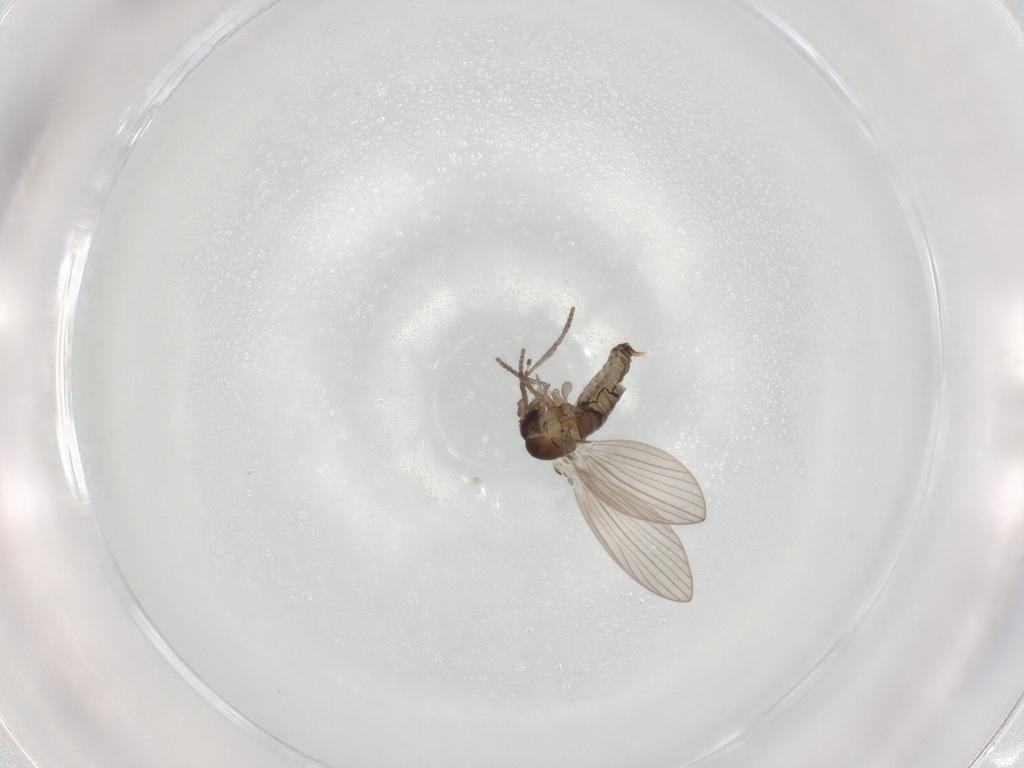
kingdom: Animalia
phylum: Arthropoda
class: Insecta
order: Diptera
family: Psychodidae
